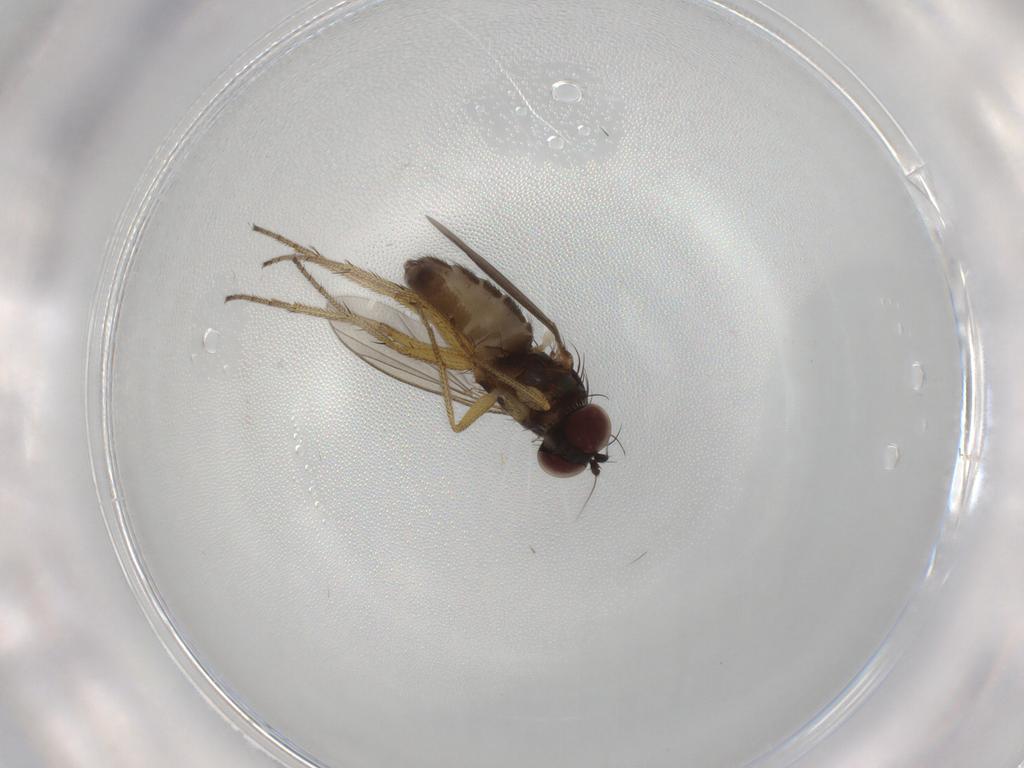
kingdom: Animalia
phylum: Arthropoda
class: Insecta
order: Diptera
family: Dolichopodidae
